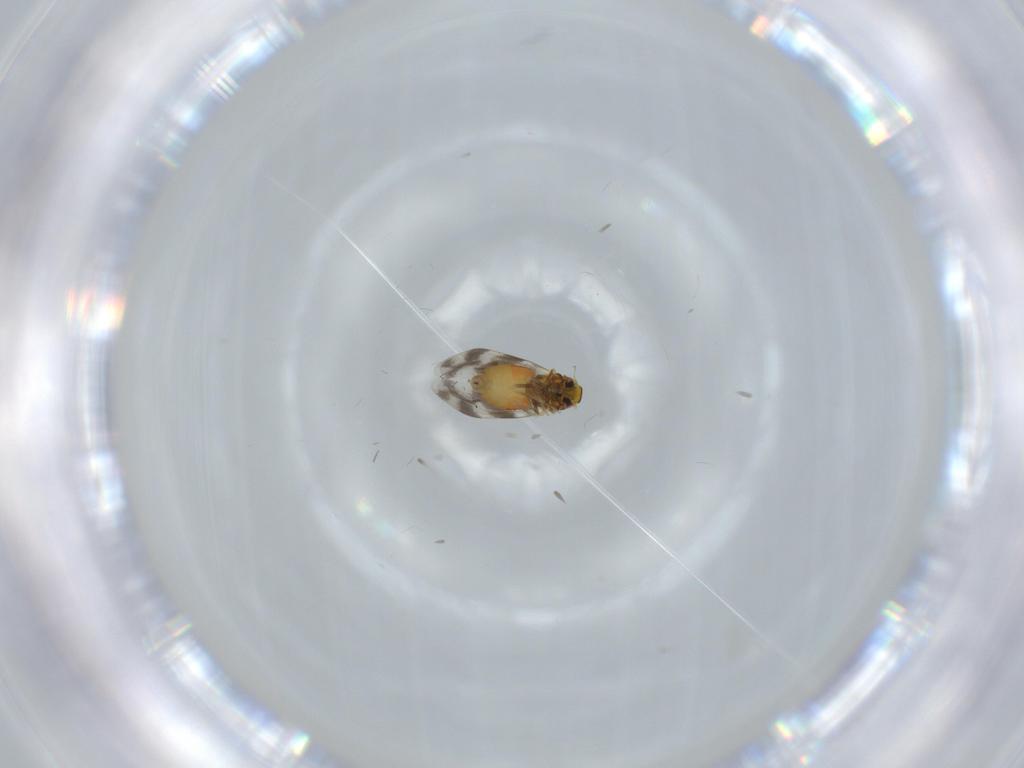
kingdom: Animalia
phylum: Arthropoda
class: Insecta
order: Hemiptera
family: Aleyrodidae
